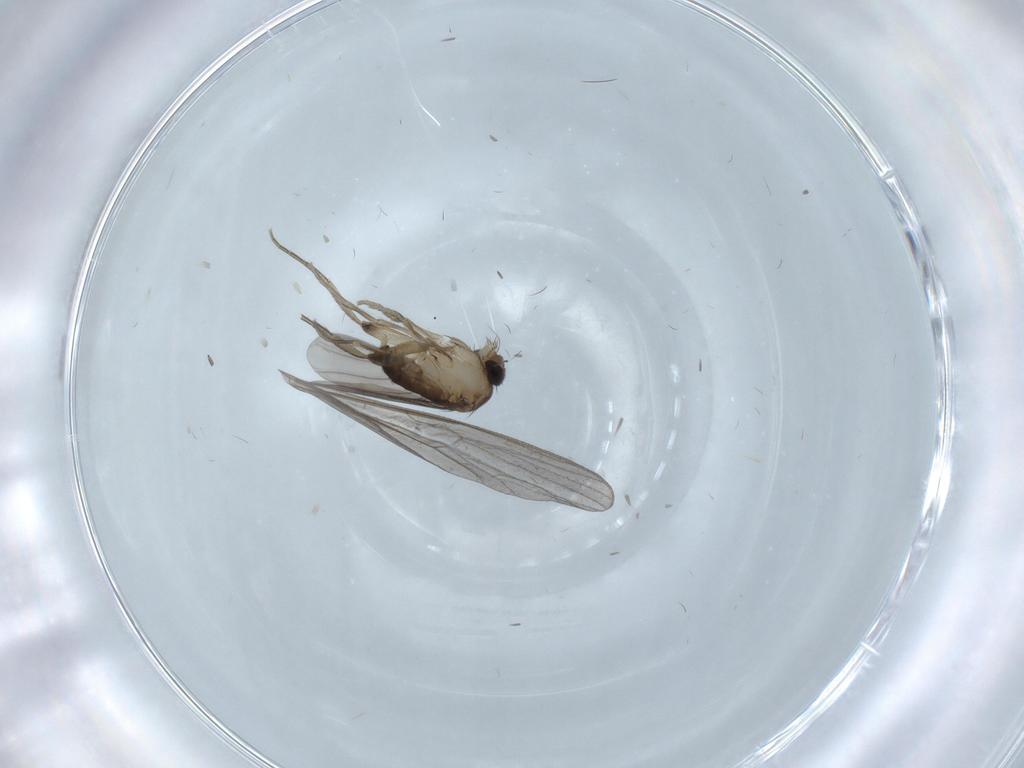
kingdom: Animalia
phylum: Arthropoda
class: Insecta
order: Diptera
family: Phoridae
